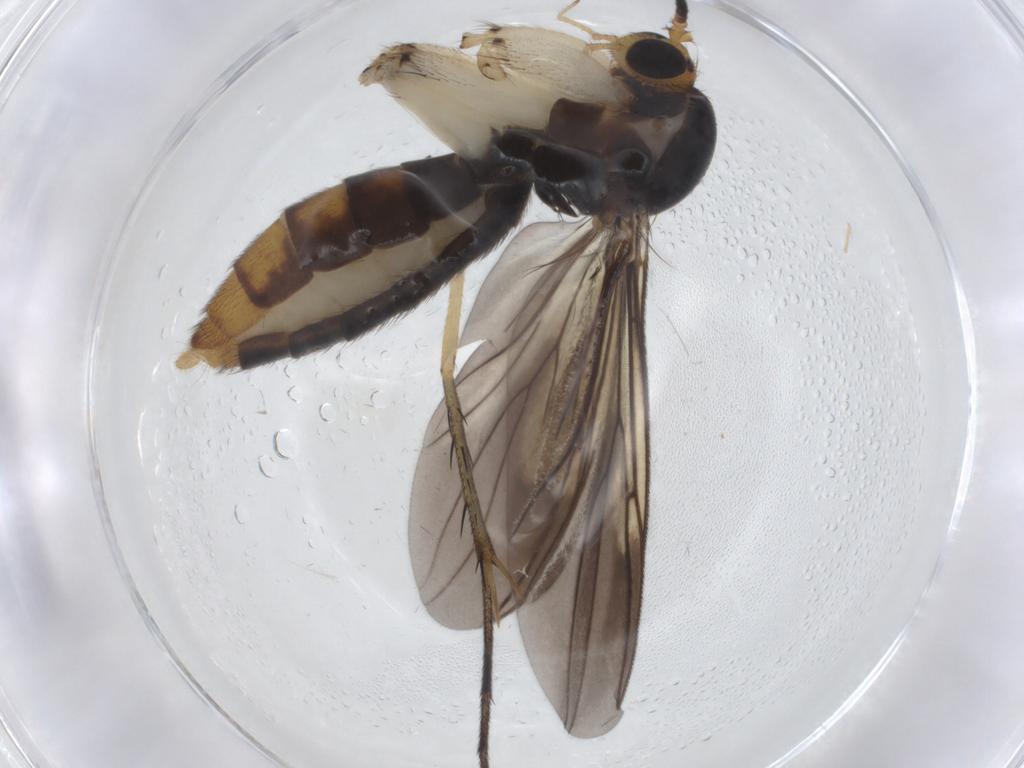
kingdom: Animalia
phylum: Arthropoda
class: Insecta
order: Diptera
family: Mycetophilidae
